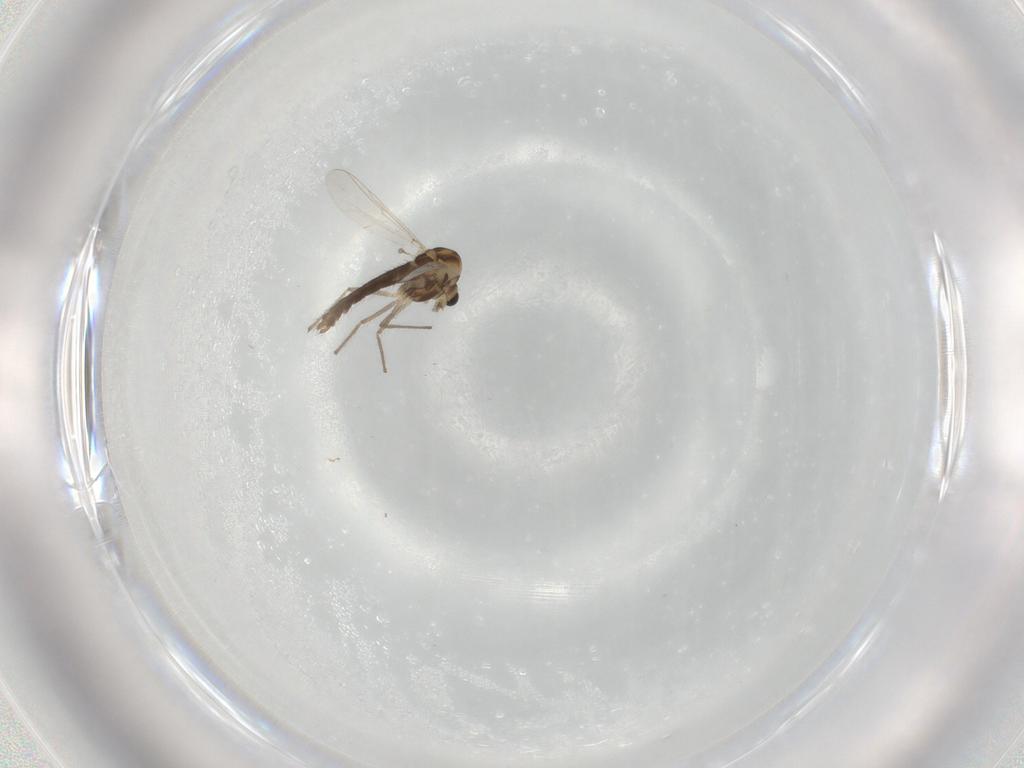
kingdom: Animalia
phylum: Arthropoda
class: Insecta
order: Diptera
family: Chironomidae
